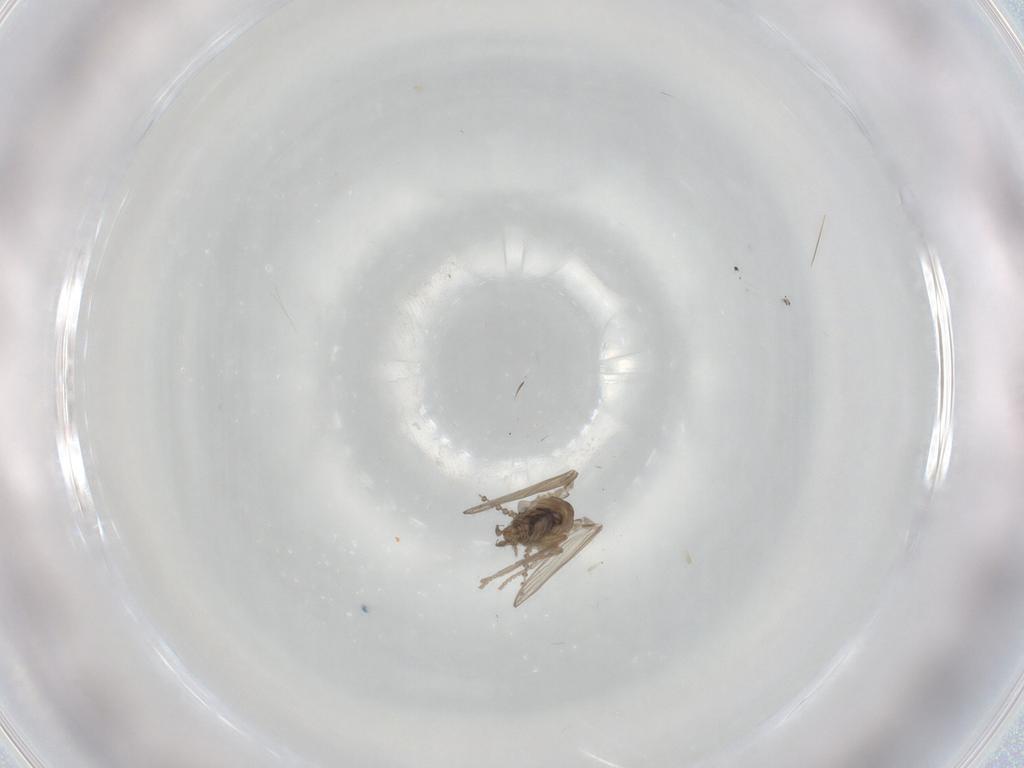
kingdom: Animalia
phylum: Arthropoda
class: Insecta
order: Diptera
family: Psychodidae
